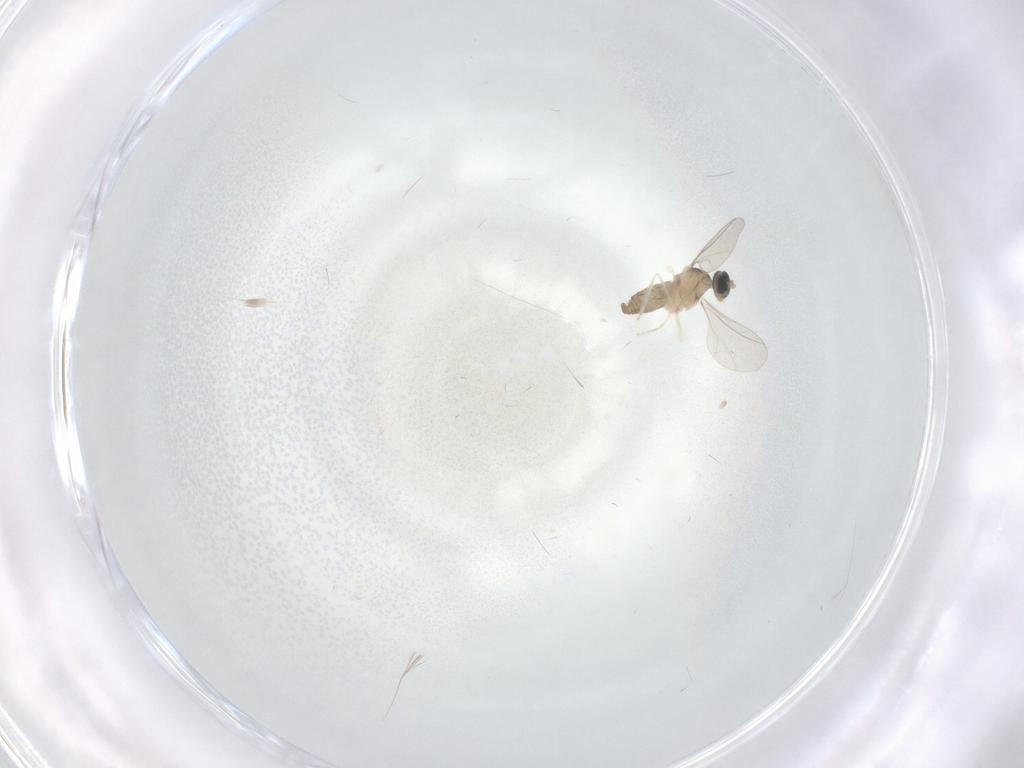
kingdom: Animalia
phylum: Arthropoda
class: Insecta
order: Diptera
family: Cecidomyiidae
